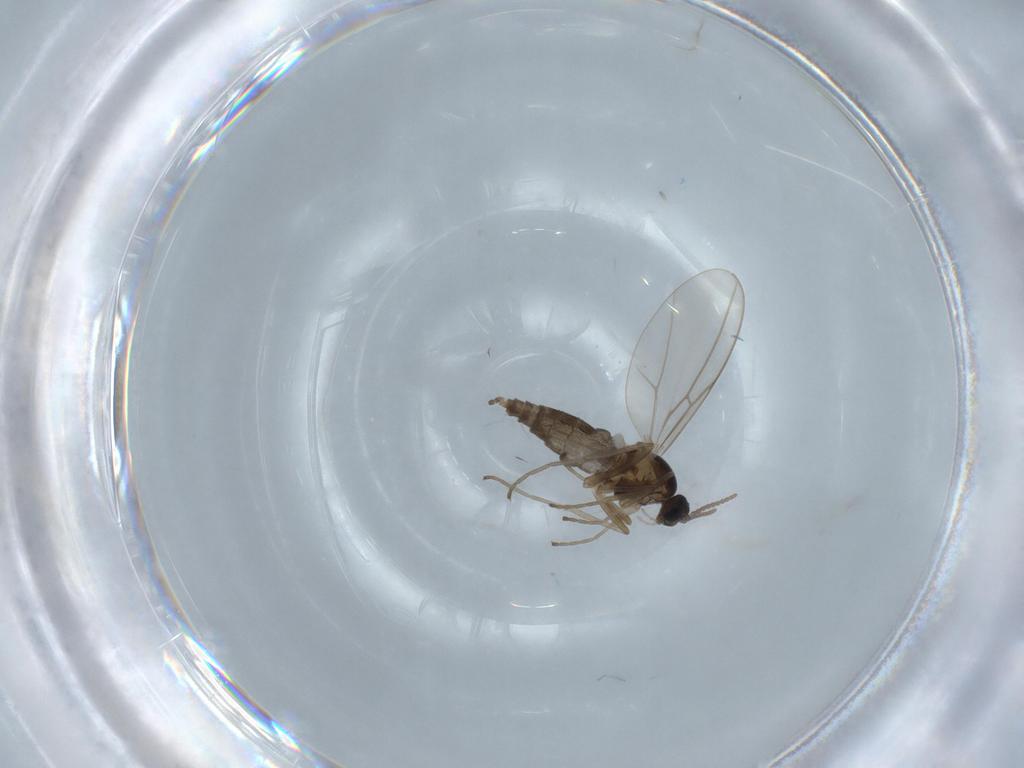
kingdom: Animalia
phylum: Arthropoda
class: Insecta
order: Diptera
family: Cecidomyiidae
